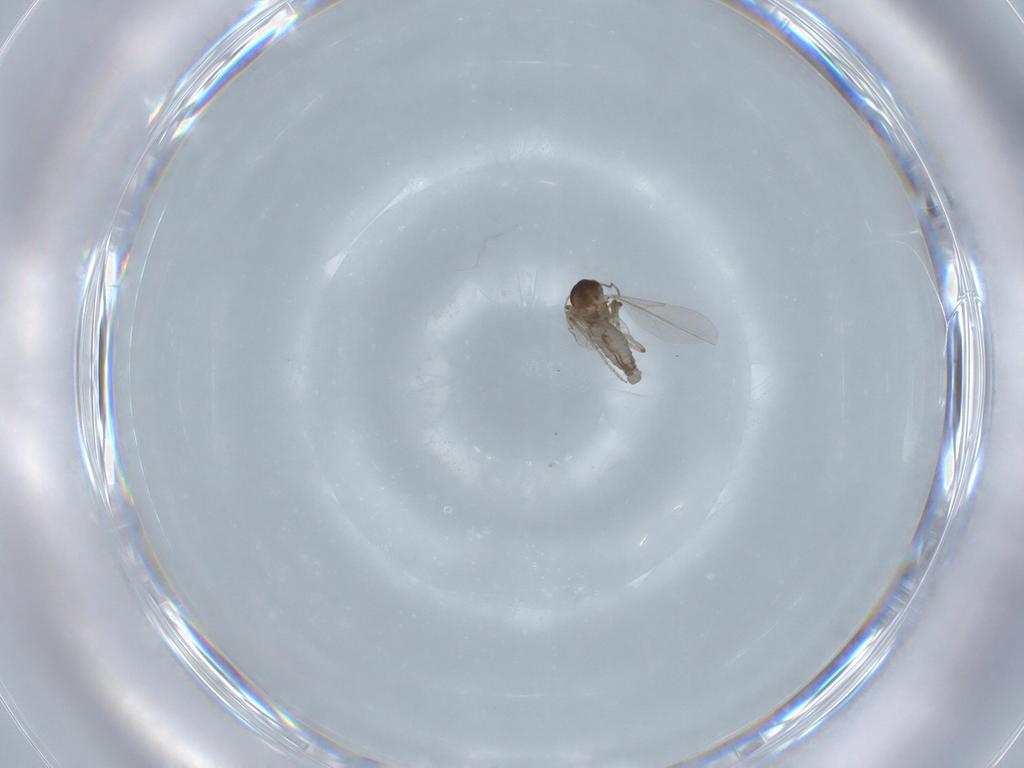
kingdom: Animalia
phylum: Arthropoda
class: Insecta
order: Diptera
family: Ceratopogonidae
